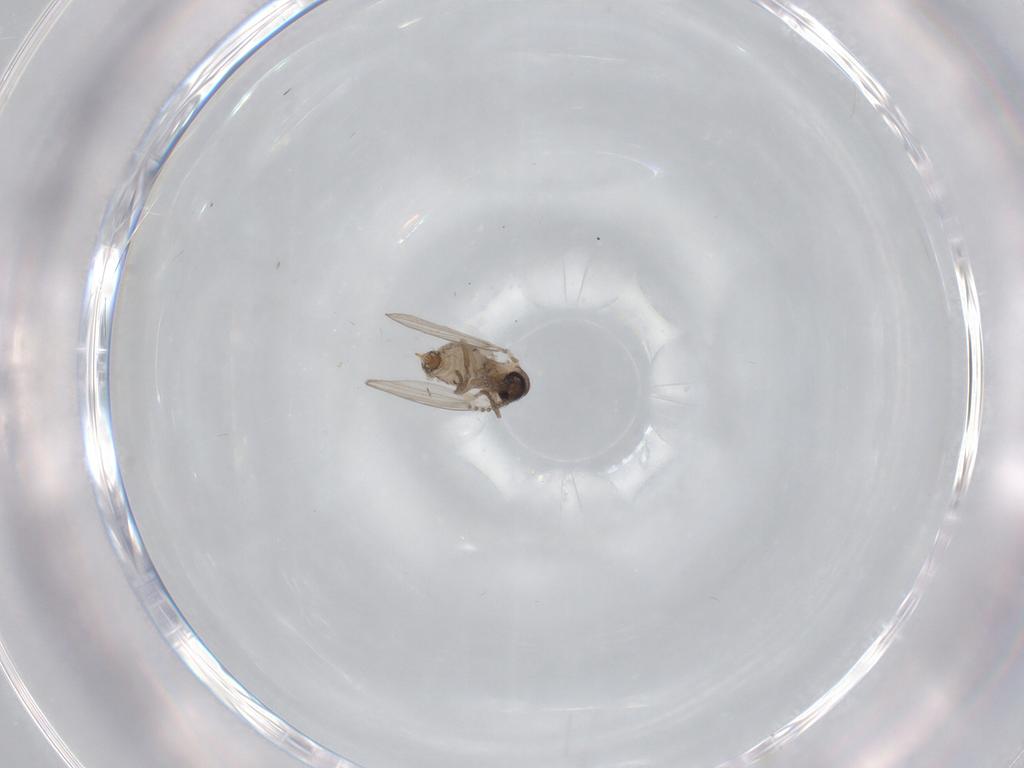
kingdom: Animalia
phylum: Arthropoda
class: Insecta
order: Diptera
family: Psychodidae
